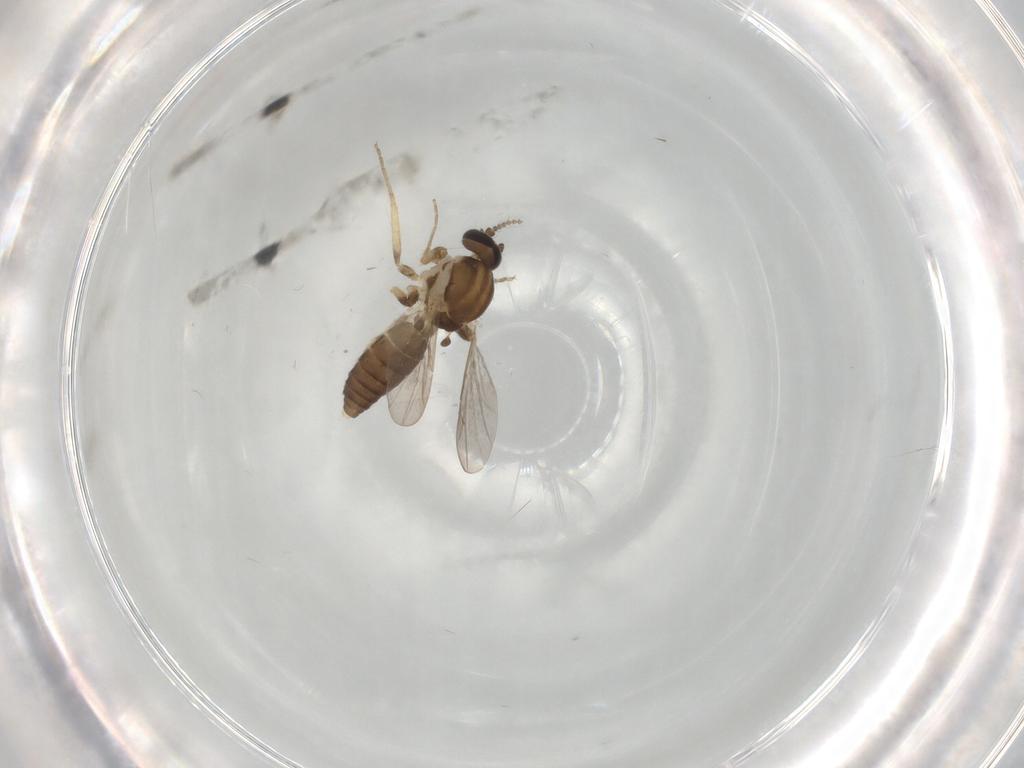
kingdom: Animalia
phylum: Arthropoda
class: Insecta
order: Diptera
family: Ceratopogonidae
